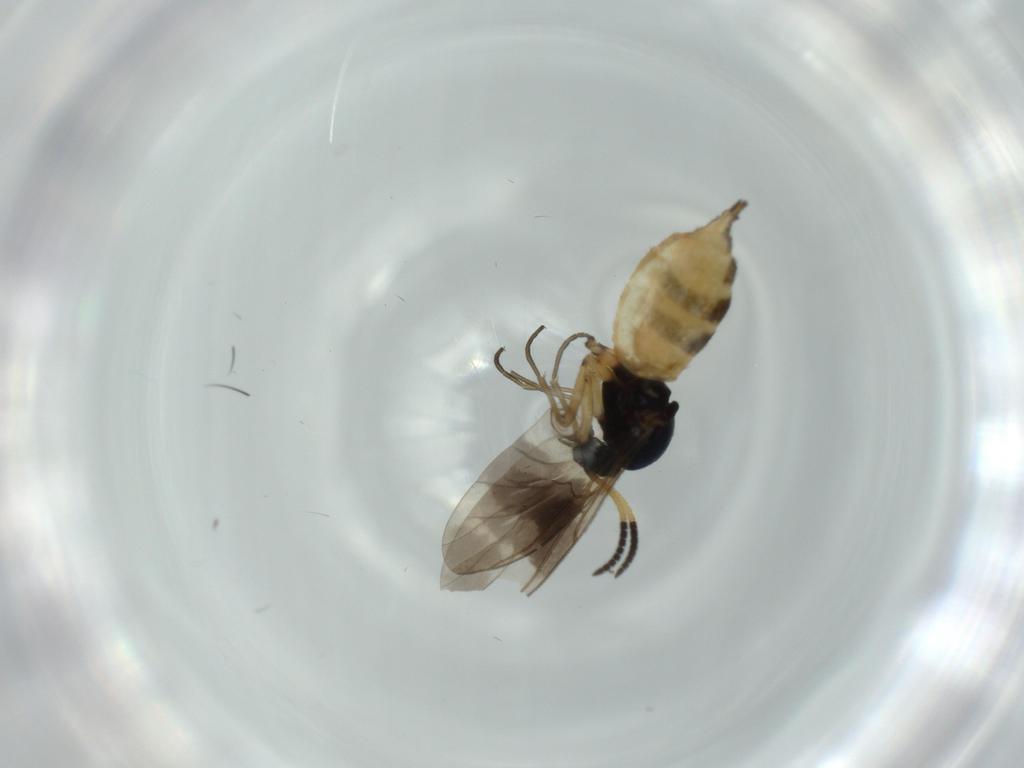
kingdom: Animalia
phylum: Arthropoda
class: Insecta
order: Diptera
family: Sciaridae
